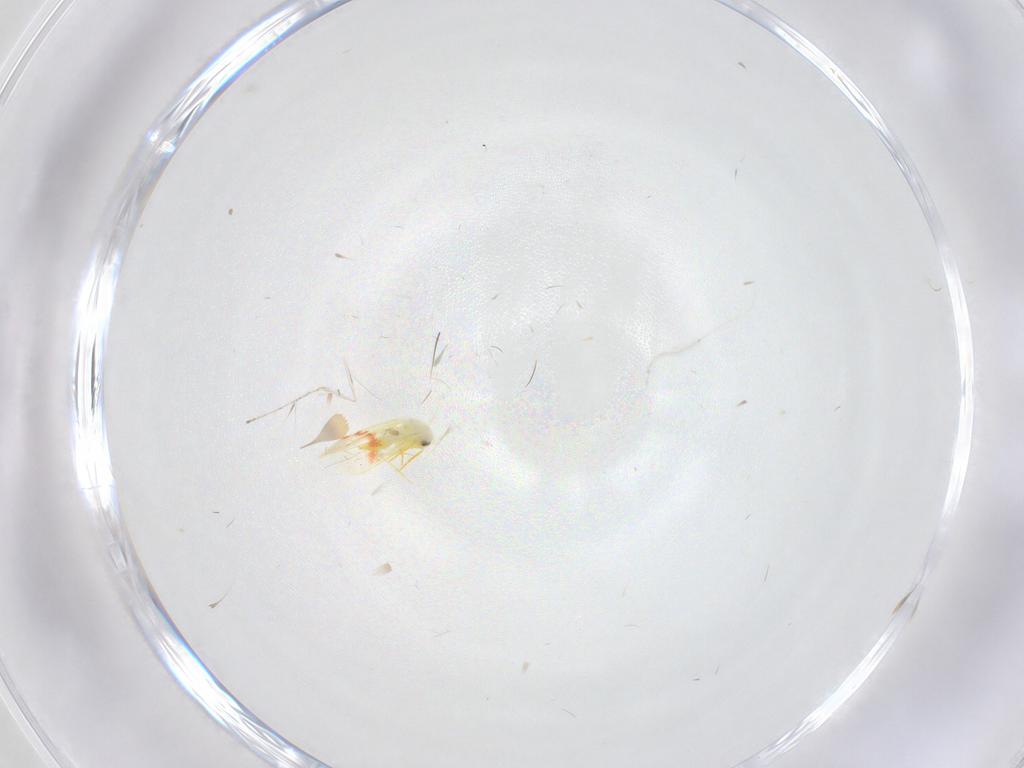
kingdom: Animalia
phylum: Arthropoda
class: Insecta
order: Hemiptera
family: Aleyrodidae
